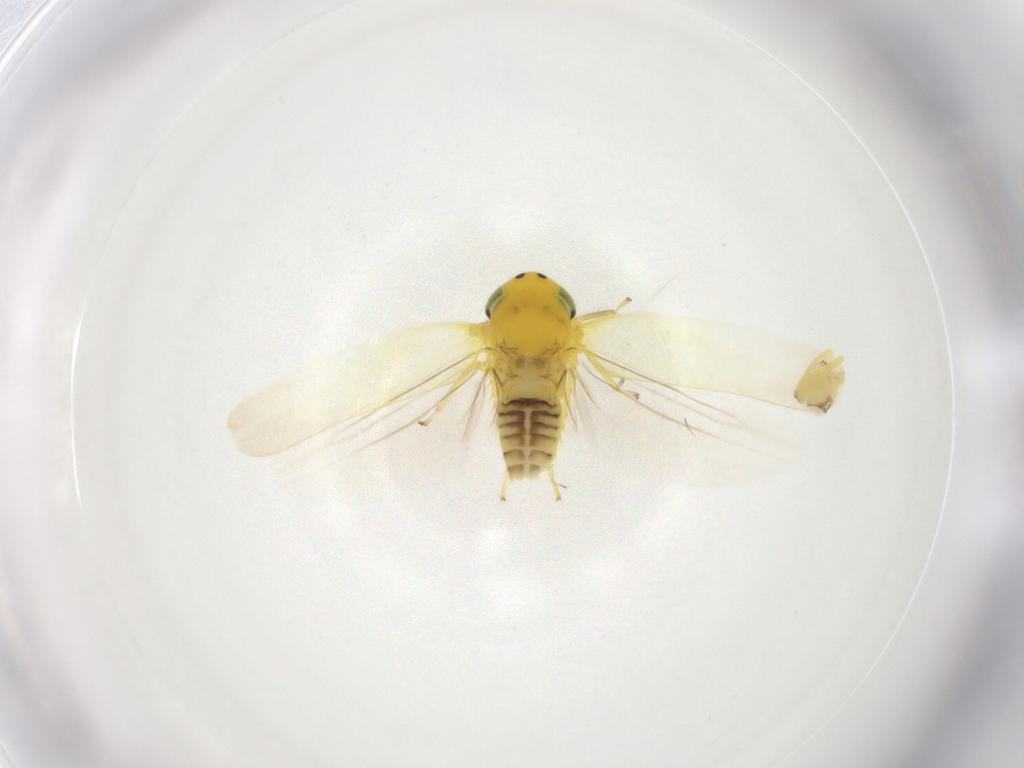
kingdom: Animalia
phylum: Arthropoda
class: Insecta
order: Hemiptera
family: Cicadellidae
